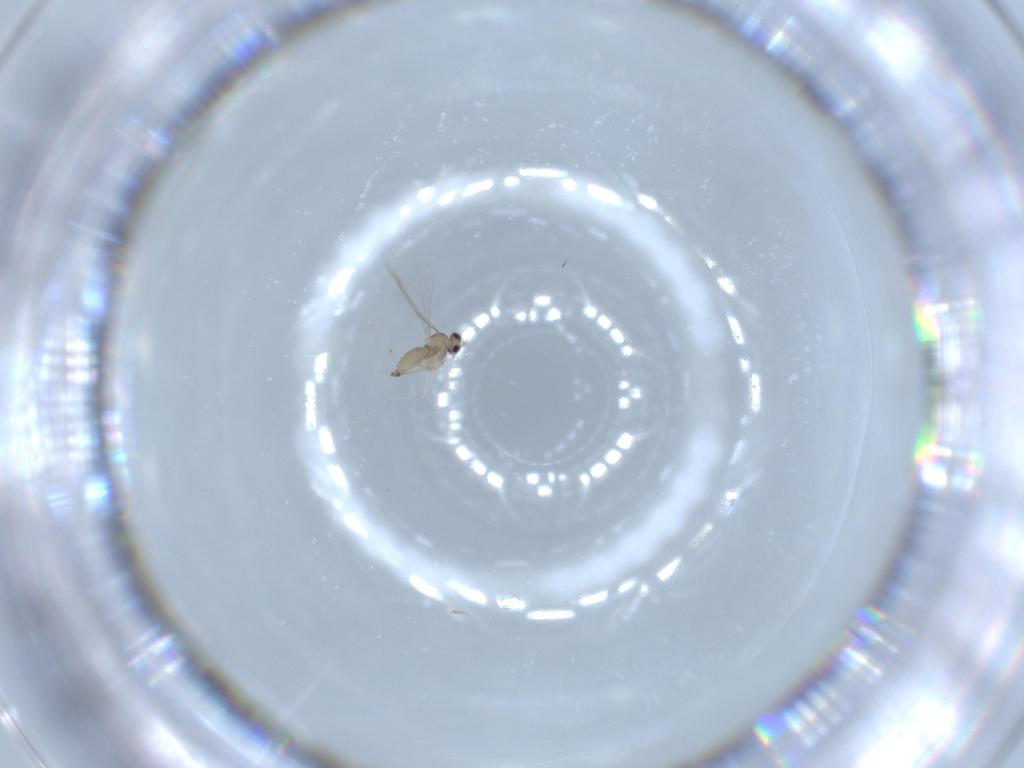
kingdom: Animalia
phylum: Arthropoda
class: Insecta
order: Diptera
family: Cecidomyiidae
